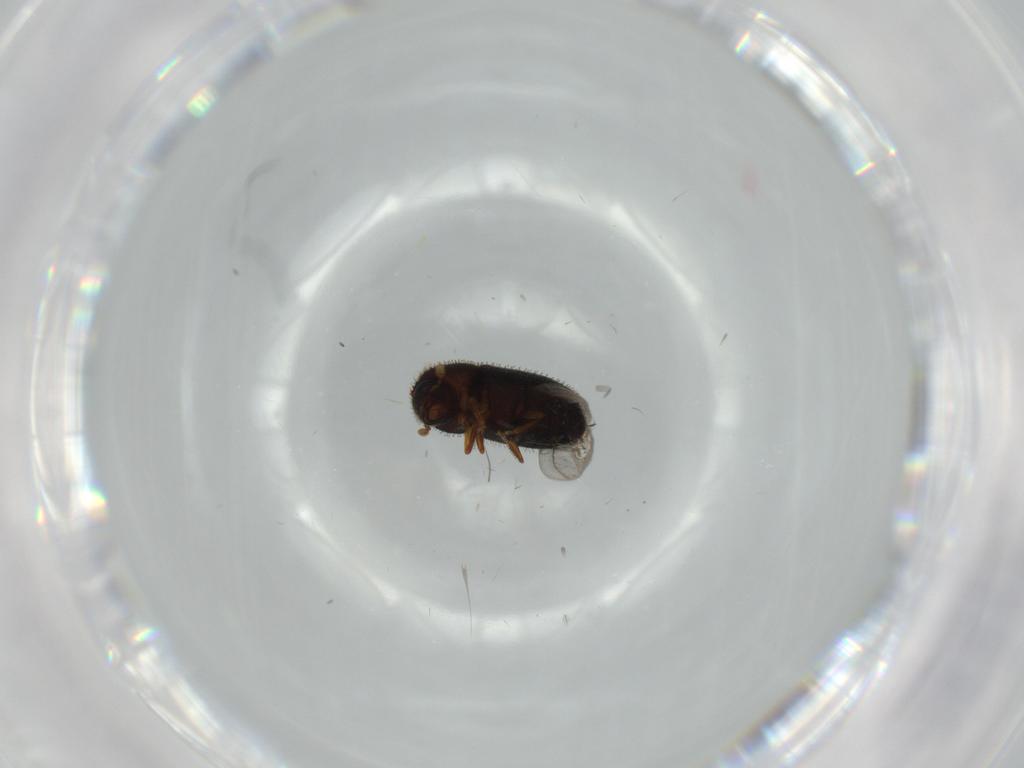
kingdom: Animalia
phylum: Arthropoda
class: Insecta
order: Coleoptera
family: Curculionidae
